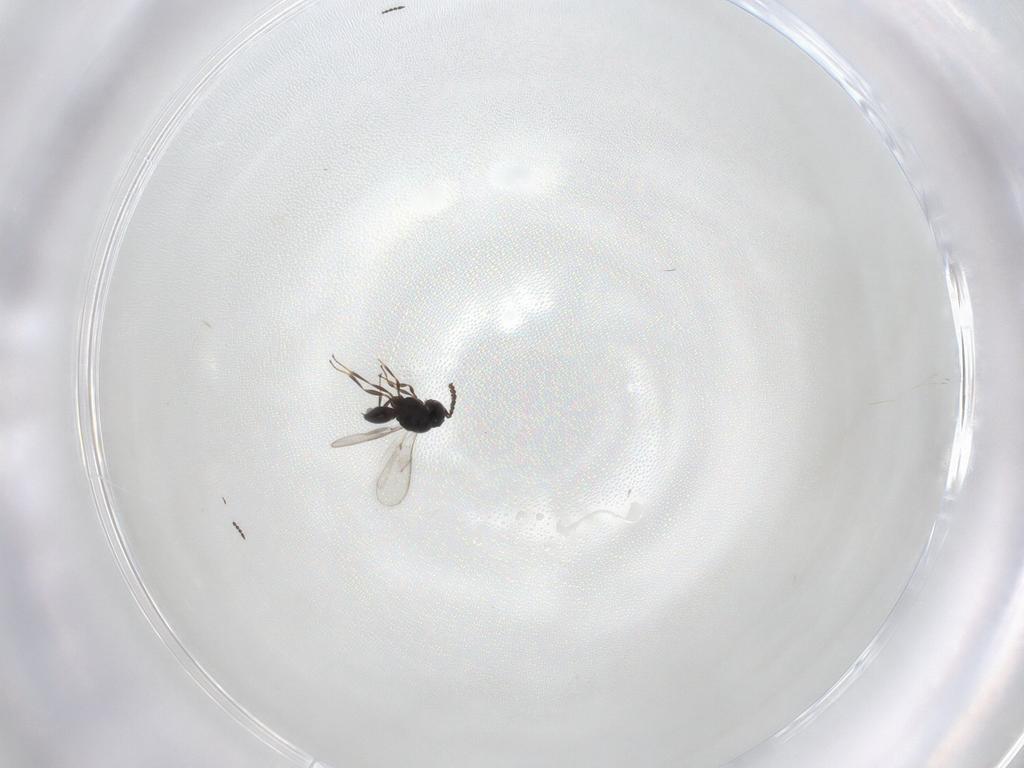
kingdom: Animalia
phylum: Arthropoda
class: Insecta
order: Hymenoptera
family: Scelionidae
